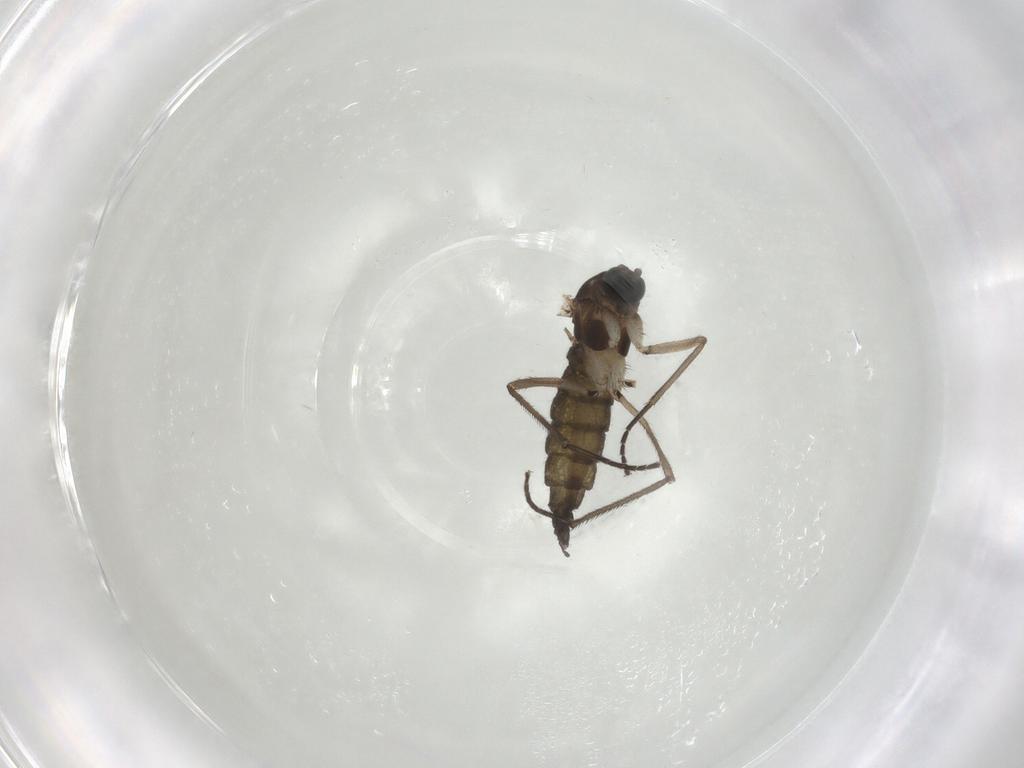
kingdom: Animalia
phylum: Arthropoda
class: Insecta
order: Diptera
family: Sciaridae
